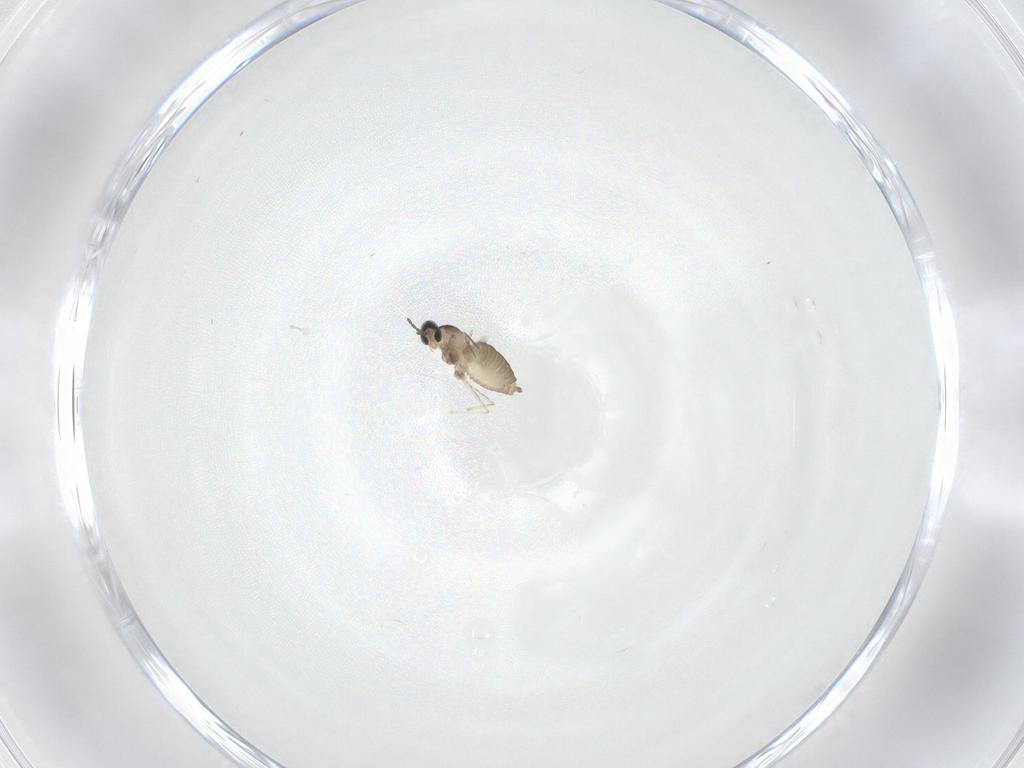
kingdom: Animalia
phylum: Arthropoda
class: Insecta
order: Diptera
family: Cecidomyiidae
